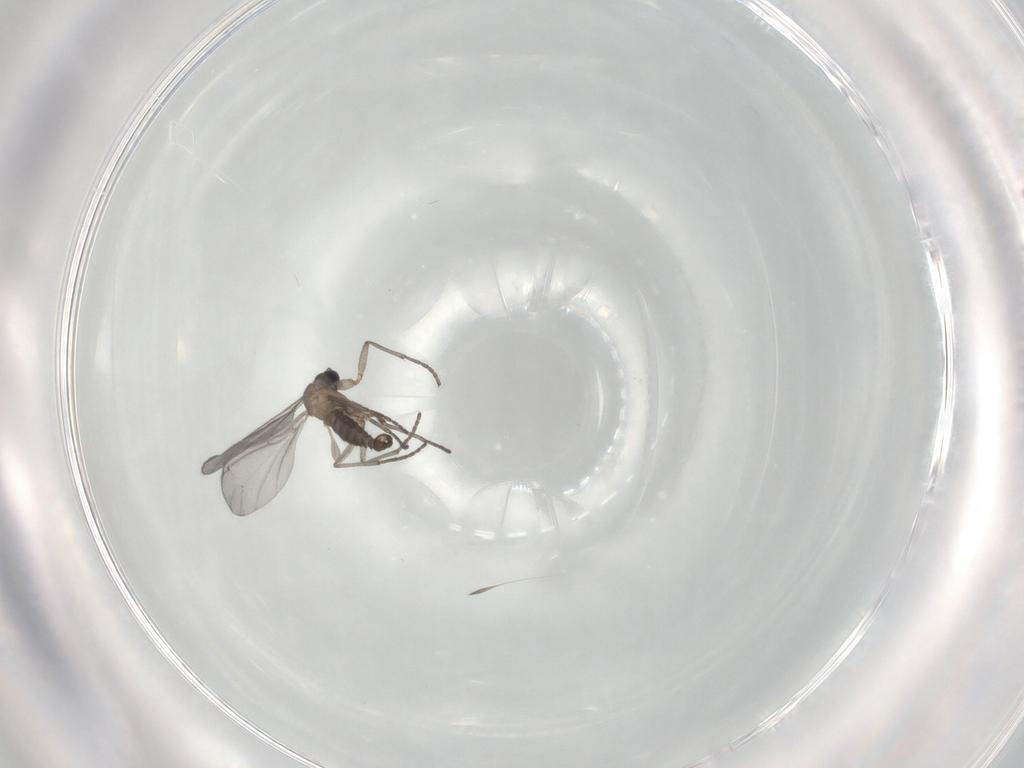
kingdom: Animalia
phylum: Arthropoda
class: Insecta
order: Diptera
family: Sciaridae
